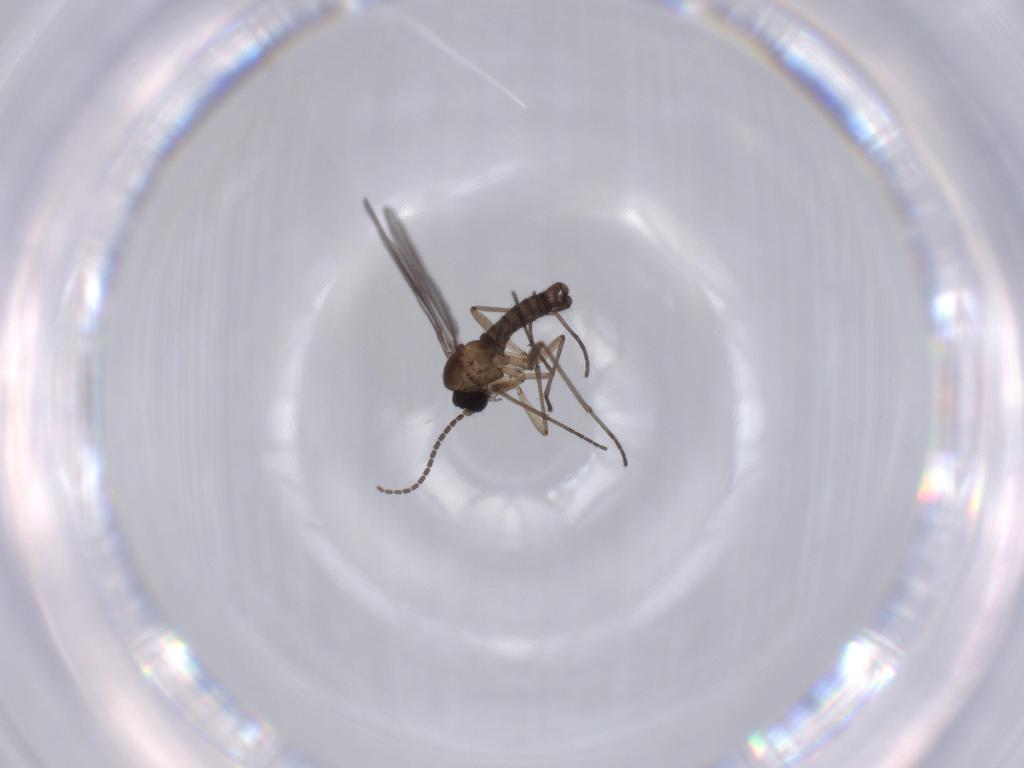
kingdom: Animalia
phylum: Arthropoda
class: Insecta
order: Diptera
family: Sciaridae
